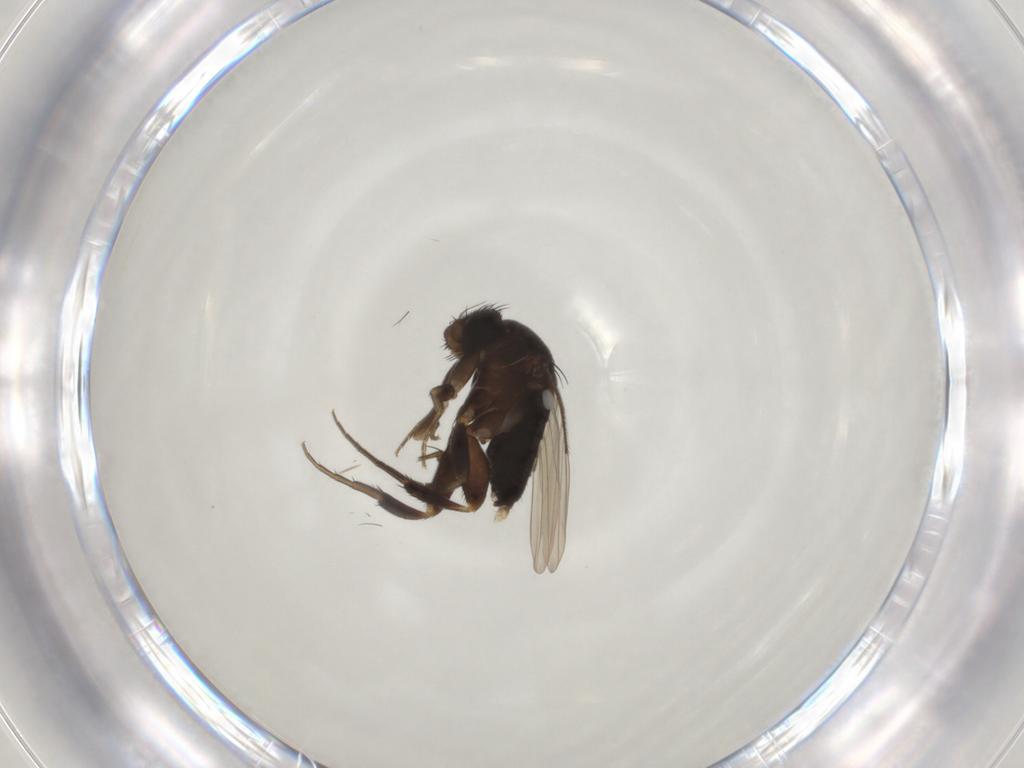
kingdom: Animalia
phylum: Arthropoda
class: Insecta
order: Diptera
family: Phoridae
